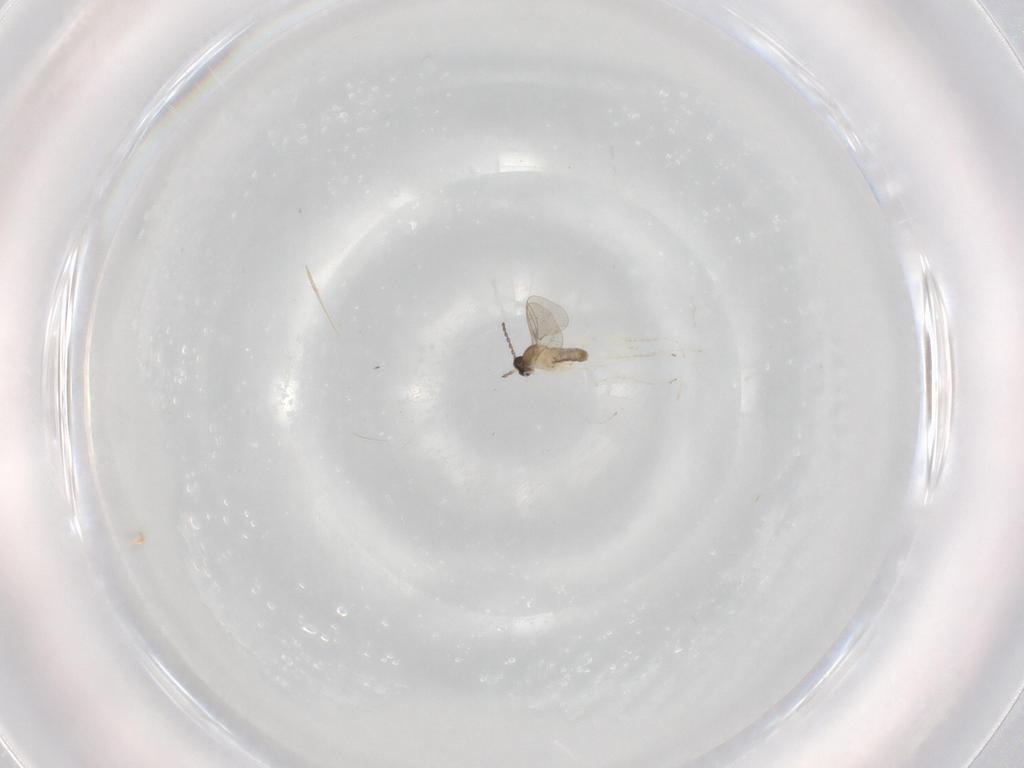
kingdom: Animalia
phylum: Arthropoda
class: Insecta
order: Diptera
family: Cecidomyiidae
